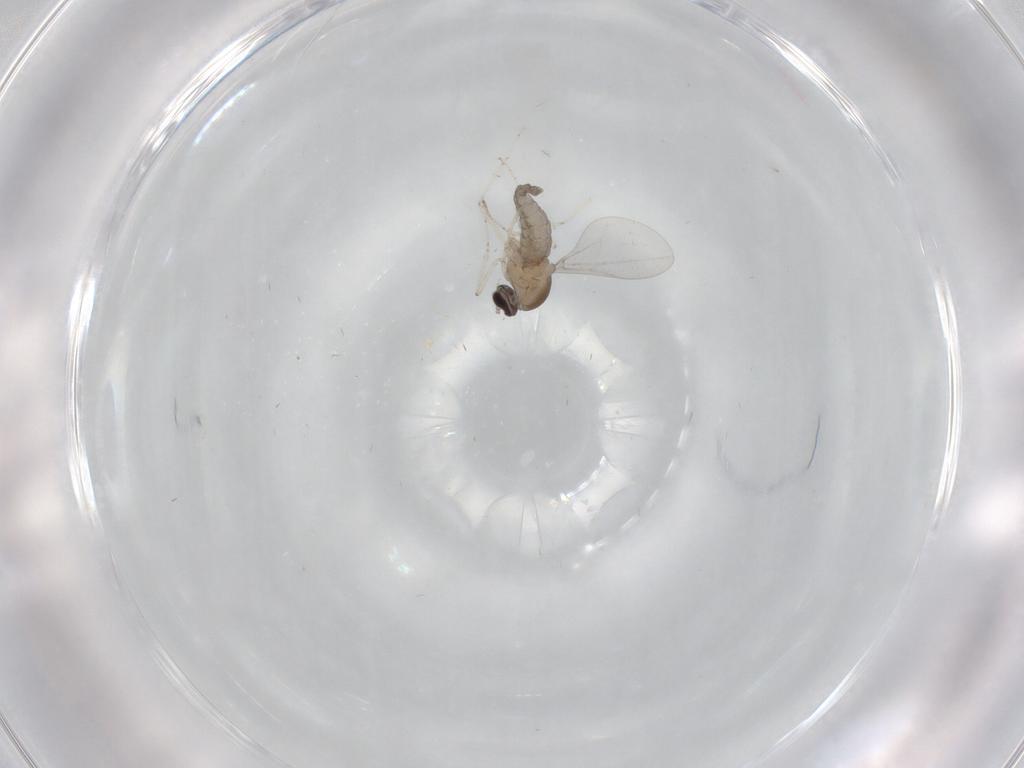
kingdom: Animalia
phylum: Arthropoda
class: Insecta
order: Diptera
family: Cecidomyiidae
